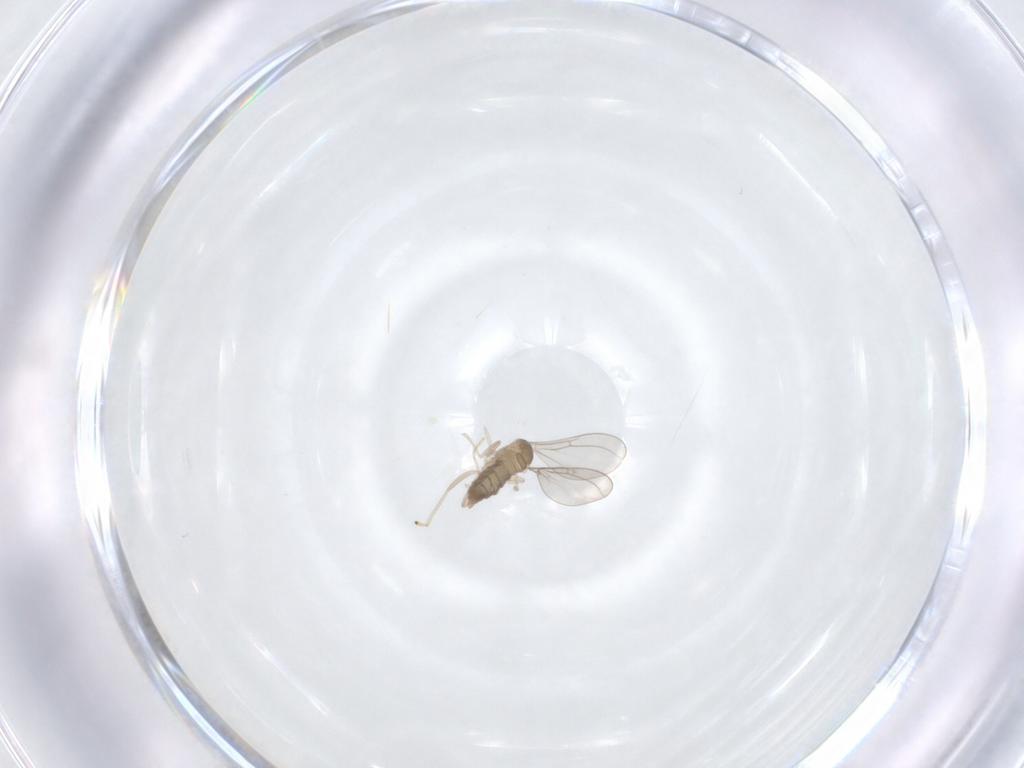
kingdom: Animalia
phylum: Arthropoda
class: Insecta
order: Diptera
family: Cecidomyiidae
